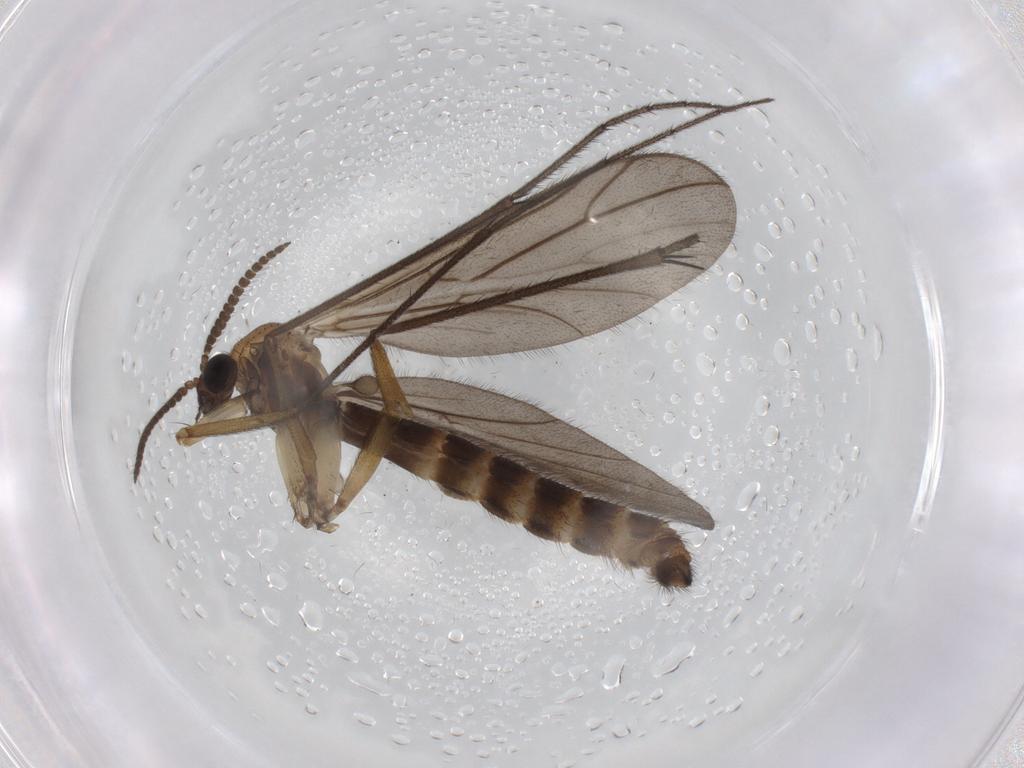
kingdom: Animalia
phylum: Arthropoda
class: Insecta
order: Diptera
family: Ditomyiidae
